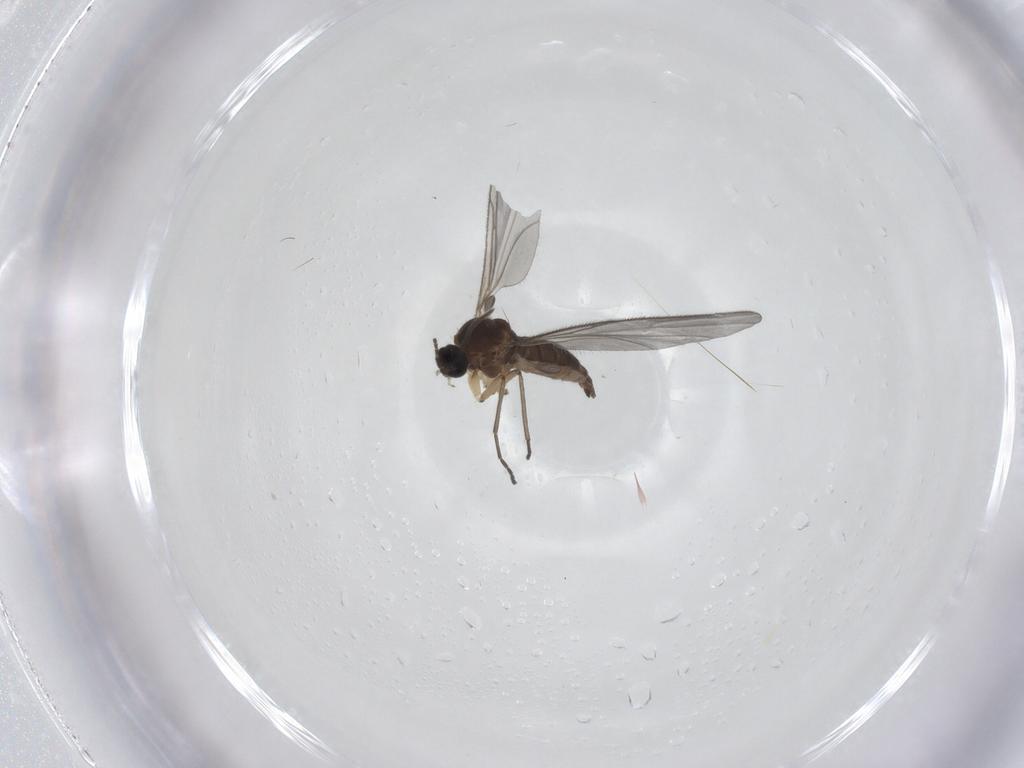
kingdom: Animalia
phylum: Arthropoda
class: Insecta
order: Diptera
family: Sciaridae
